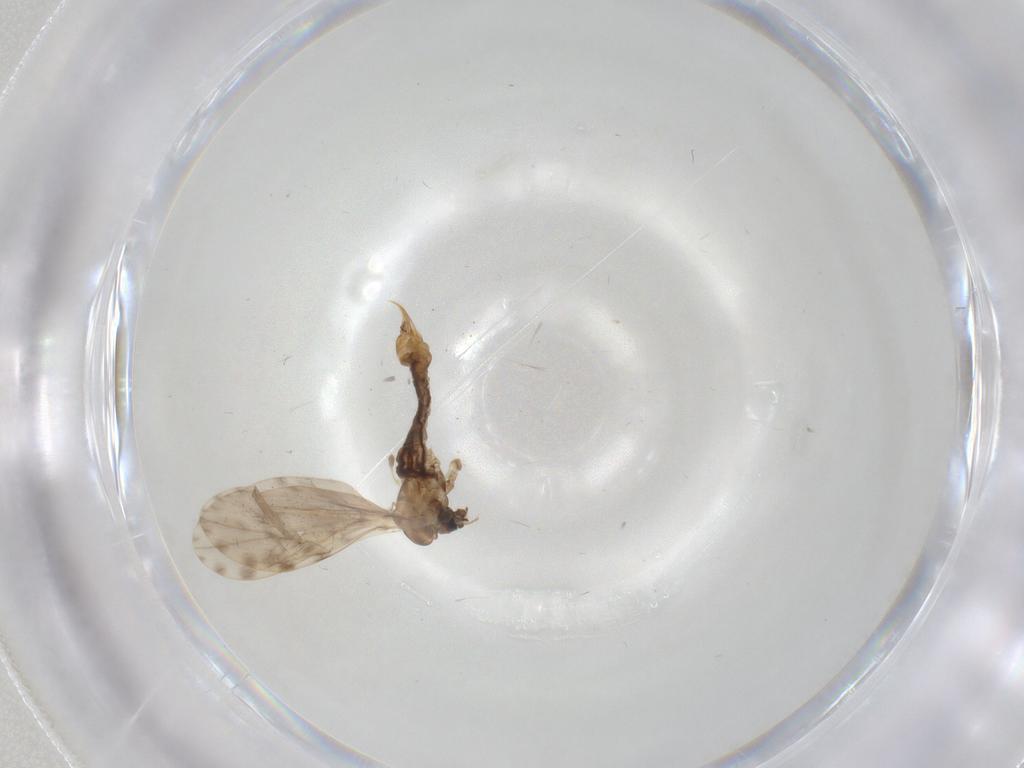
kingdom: Animalia
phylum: Arthropoda
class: Insecta
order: Diptera
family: Limoniidae
